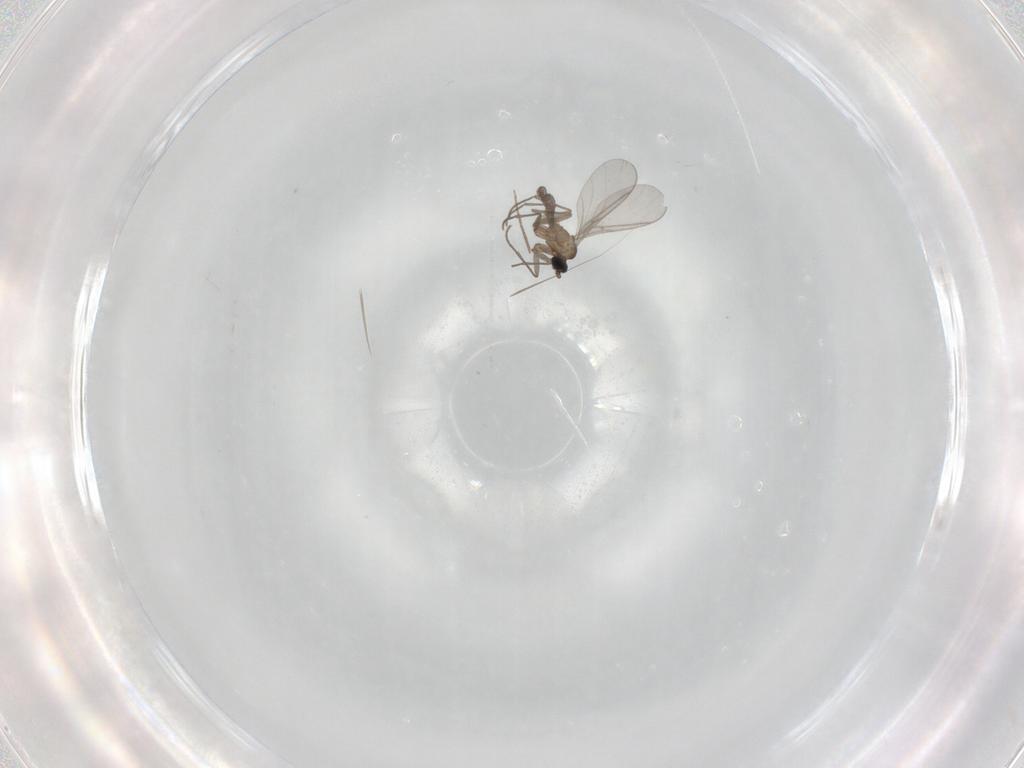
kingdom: Animalia
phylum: Arthropoda
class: Insecta
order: Diptera
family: Cecidomyiidae
